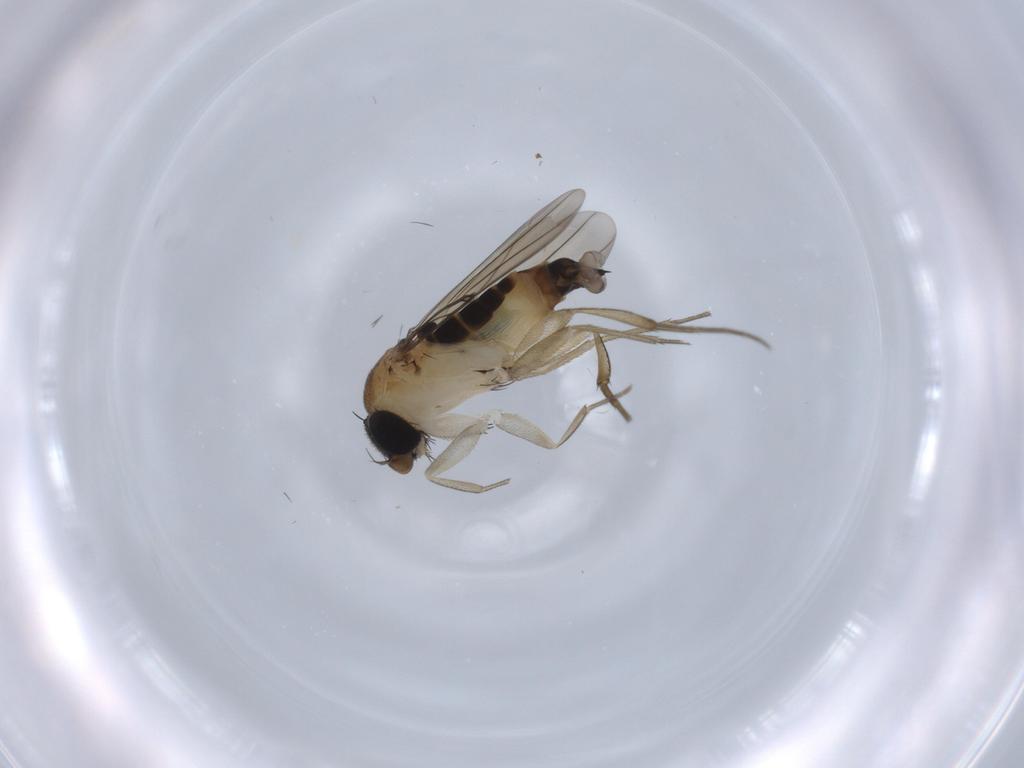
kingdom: Animalia
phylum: Arthropoda
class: Insecta
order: Diptera
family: Phoridae
